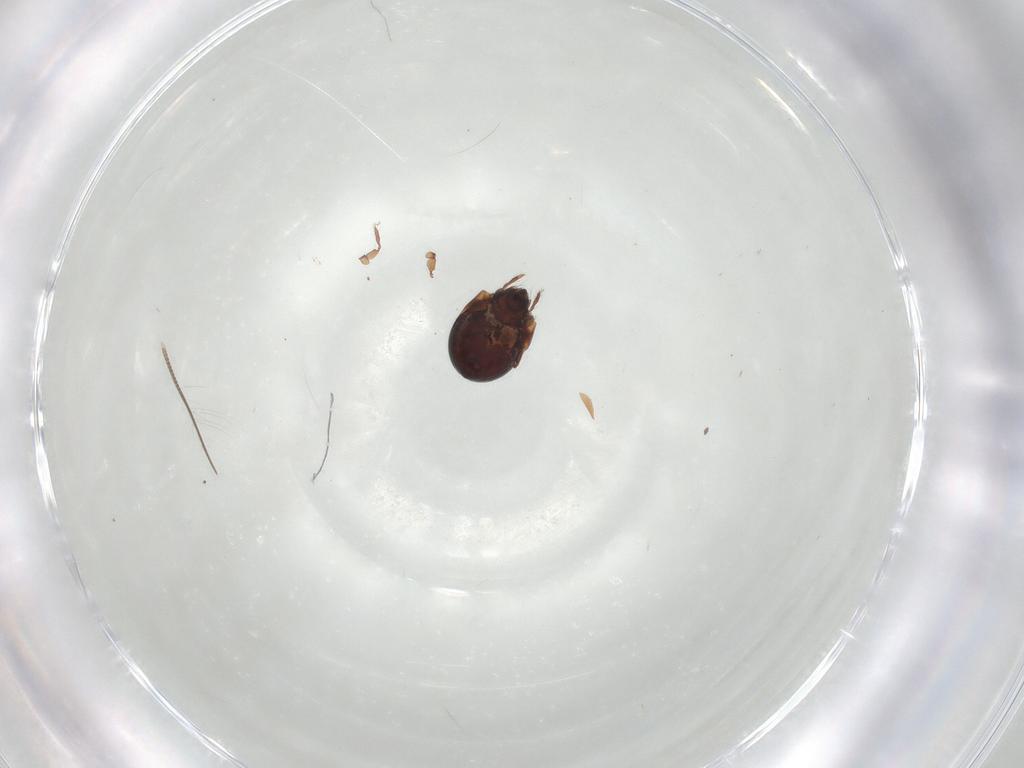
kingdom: Animalia
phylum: Arthropoda
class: Arachnida
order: Sarcoptiformes
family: Humerobatidae
